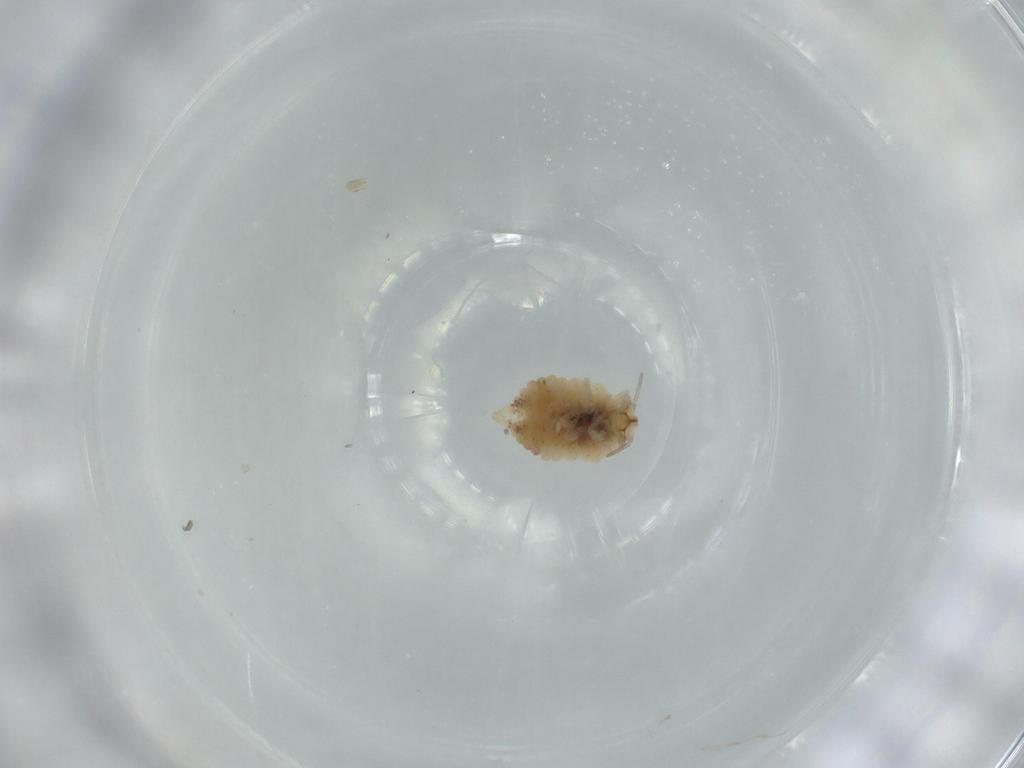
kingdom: Animalia
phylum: Arthropoda
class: Insecta
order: Neuroptera
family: Coniopterygidae
